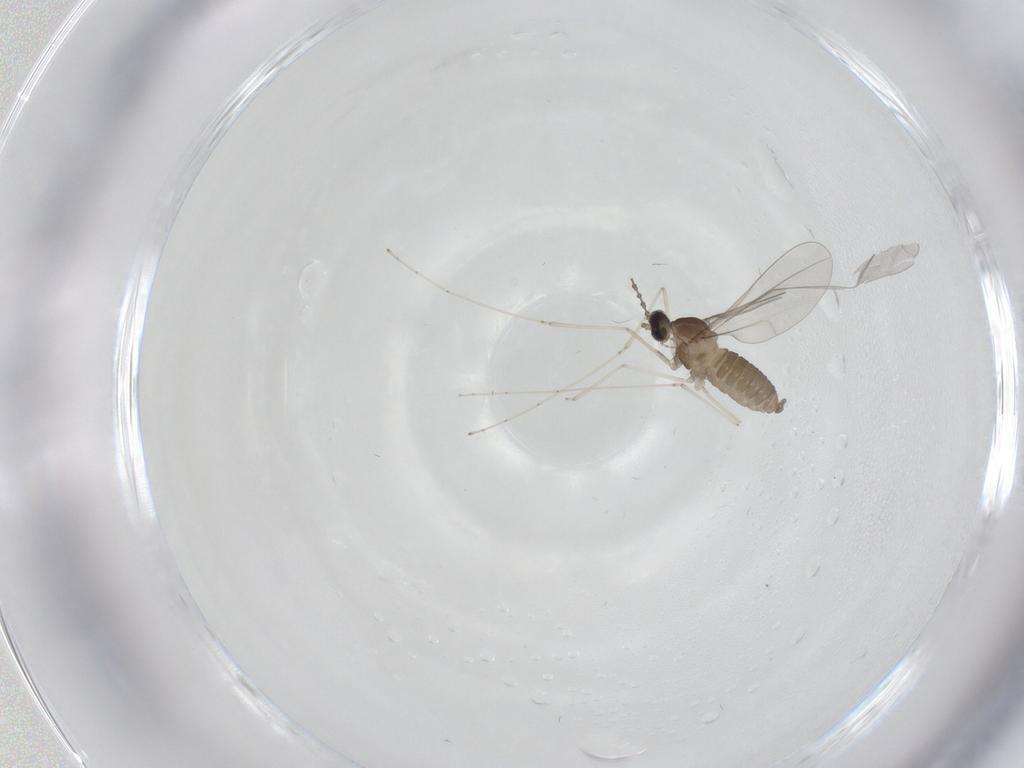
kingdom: Animalia
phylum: Arthropoda
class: Insecta
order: Diptera
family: Cecidomyiidae
